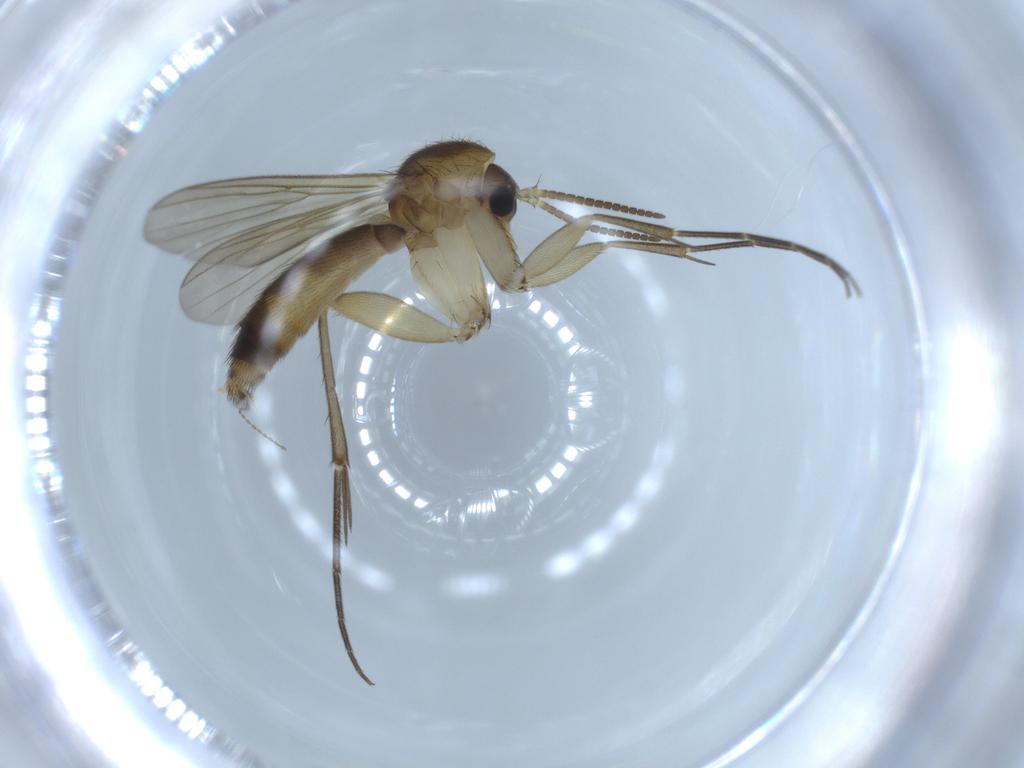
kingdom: Animalia
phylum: Arthropoda
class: Insecta
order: Diptera
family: Mycetophilidae
